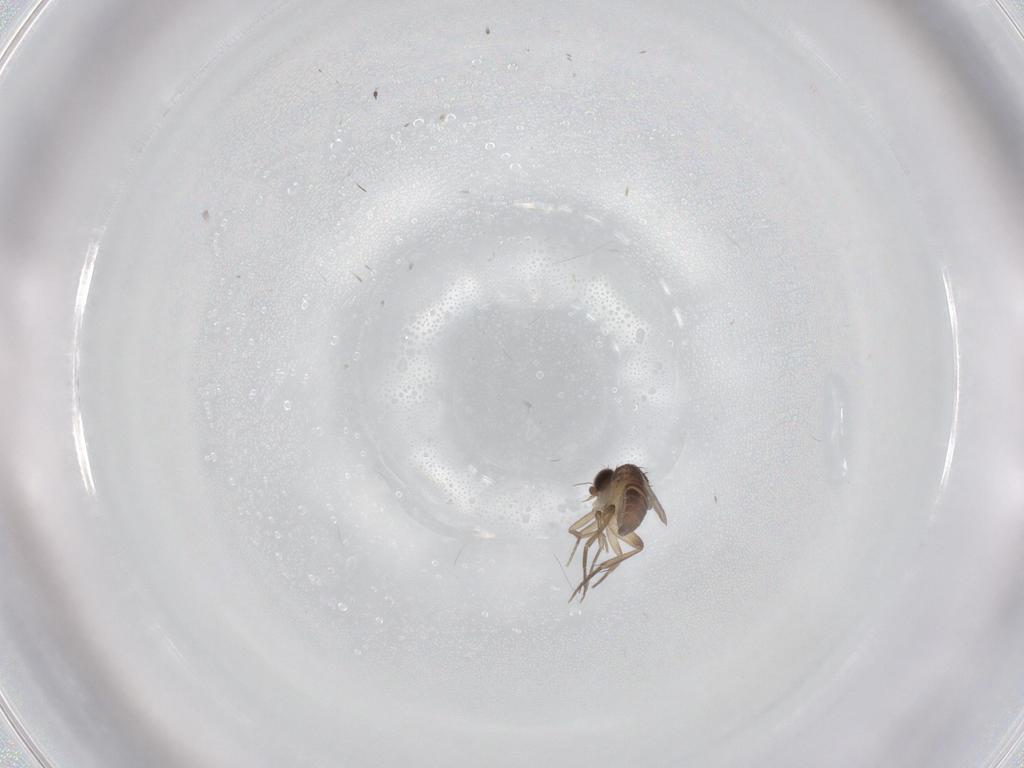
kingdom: Animalia
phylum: Arthropoda
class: Insecta
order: Diptera
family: Phoridae
